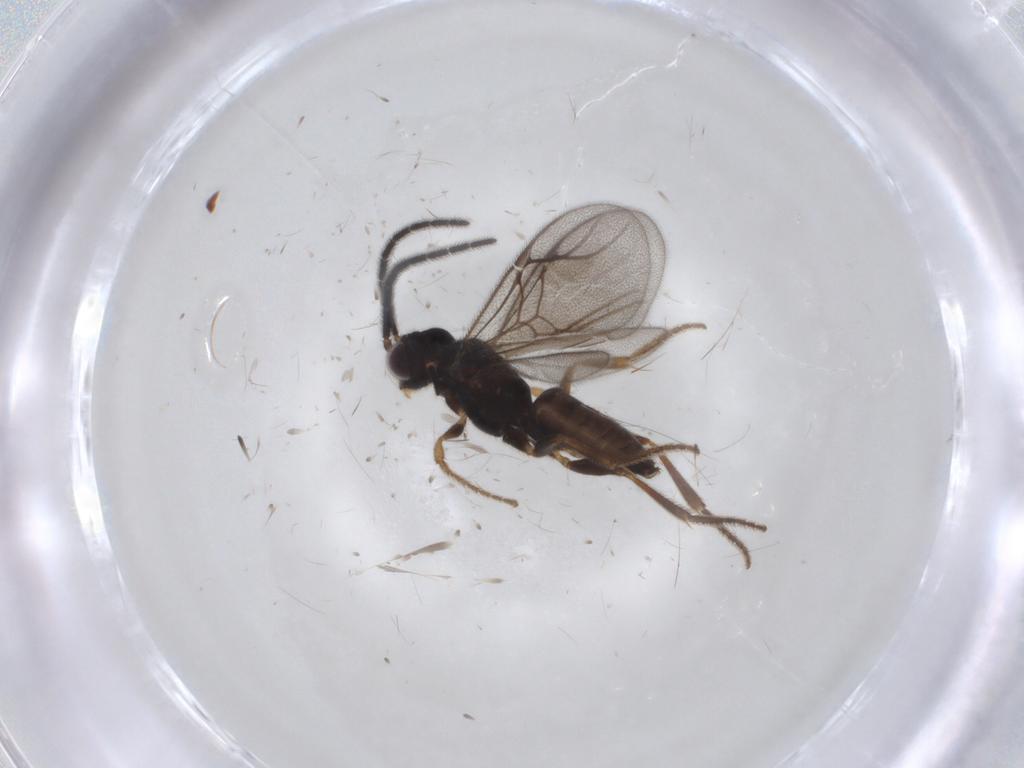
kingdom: Animalia
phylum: Arthropoda
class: Insecta
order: Hymenoptera
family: Dryinidae
